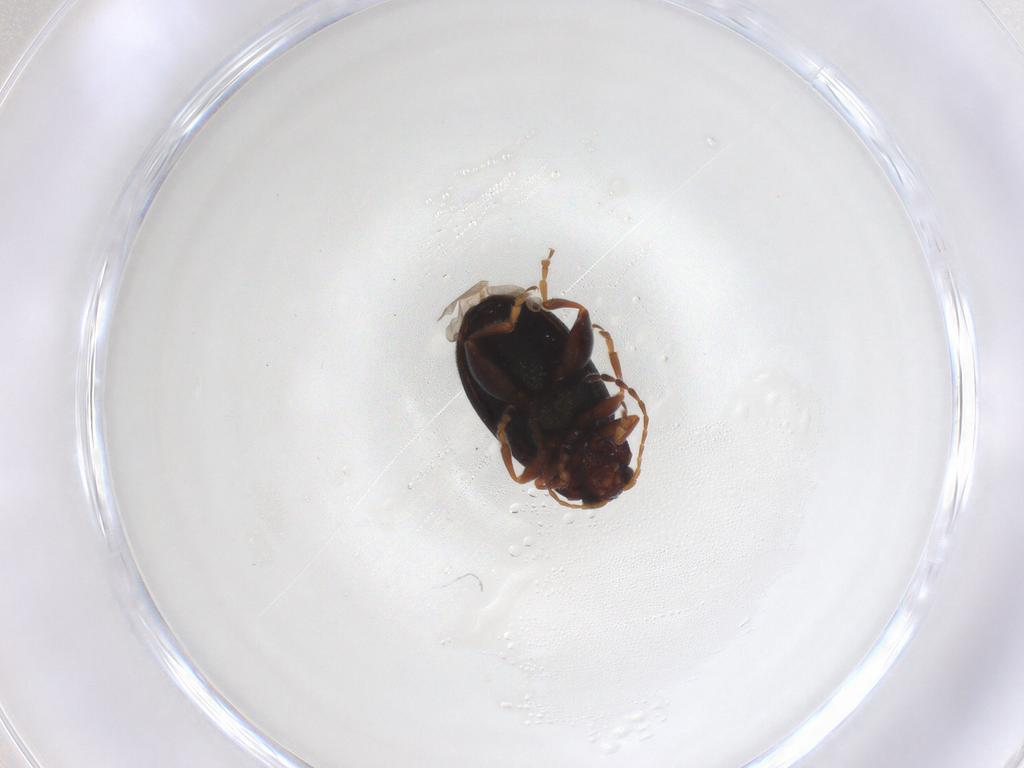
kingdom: Animalia
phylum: Arthropoda
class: Insecta
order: Coleoptera
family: Chrysomelidae
